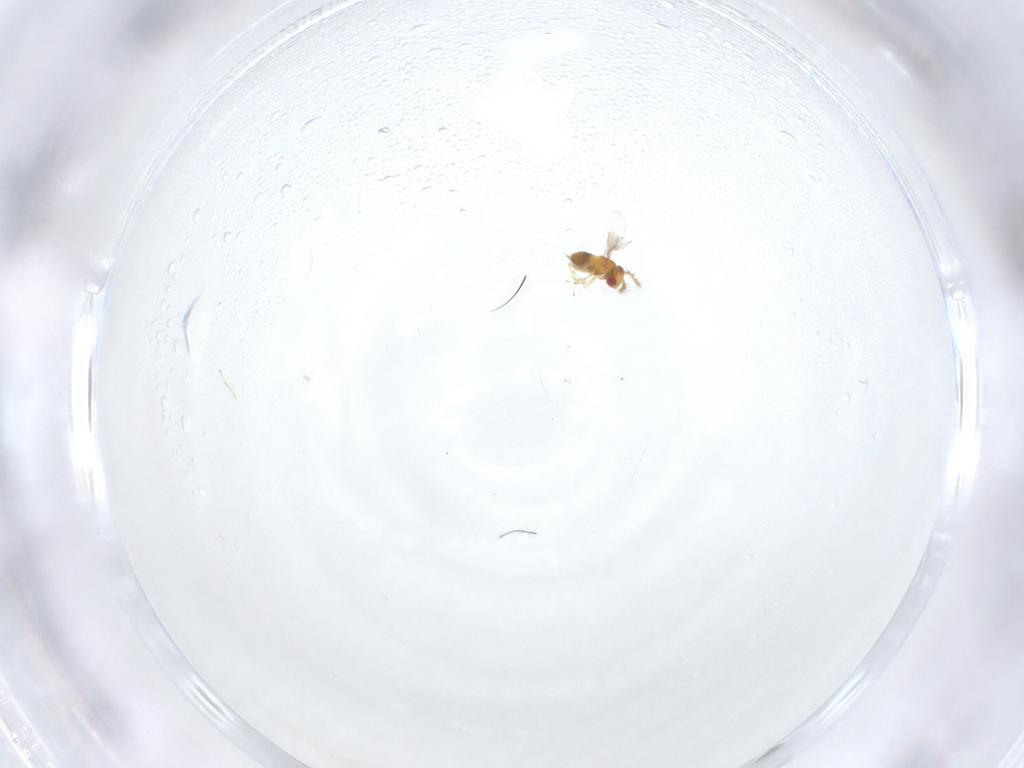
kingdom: Animalia
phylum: Arthropoda
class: Insecta
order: Hymenoptera
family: Trichogrammatidae
